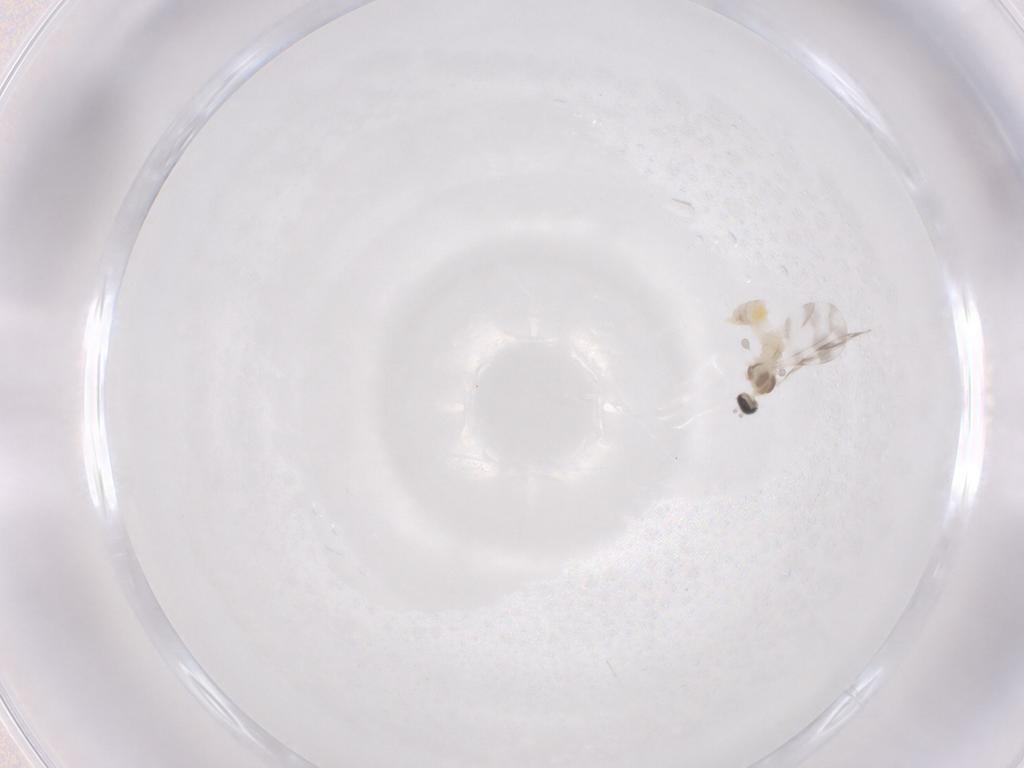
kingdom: Animalia
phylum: Arthropoda
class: Insecta
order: Diptera
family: Cecidomyiidae
